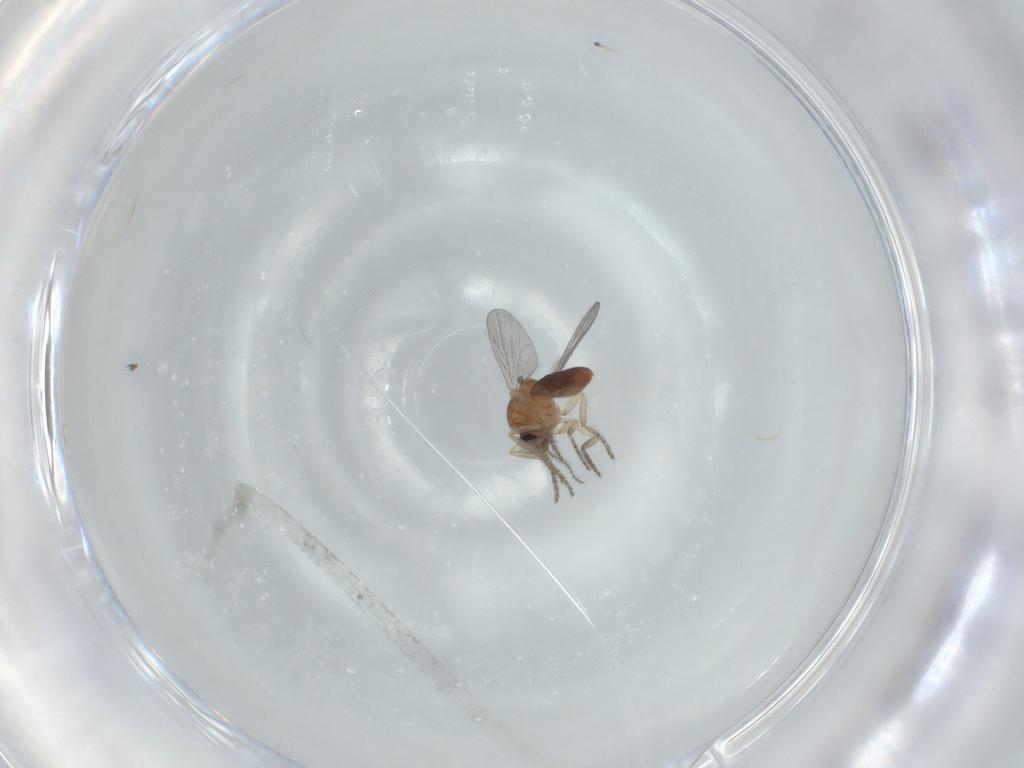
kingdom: Animalia
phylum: Arthropoda
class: Insecta
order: Diptera
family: Ceratopogonidae
